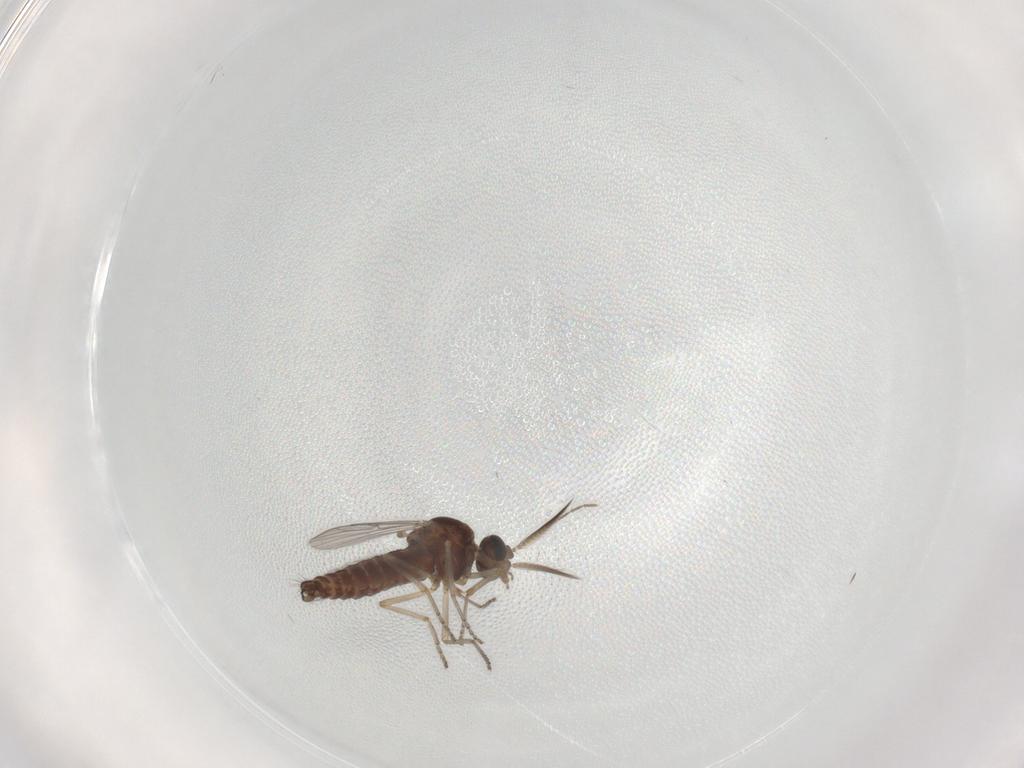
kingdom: Animalia
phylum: Arthropoda
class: Insecta
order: Diptera
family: Ceratopogonidae
